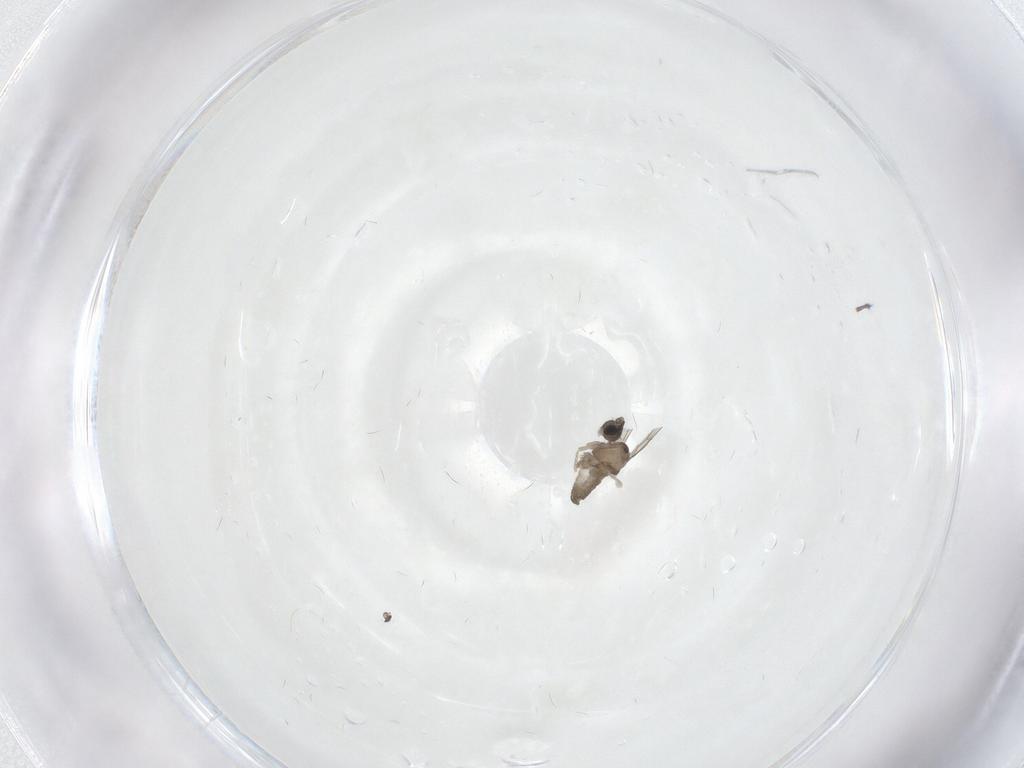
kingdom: Animalia
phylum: Arthropoda
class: Insecta
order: Diptera
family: Cecidomyiidae
